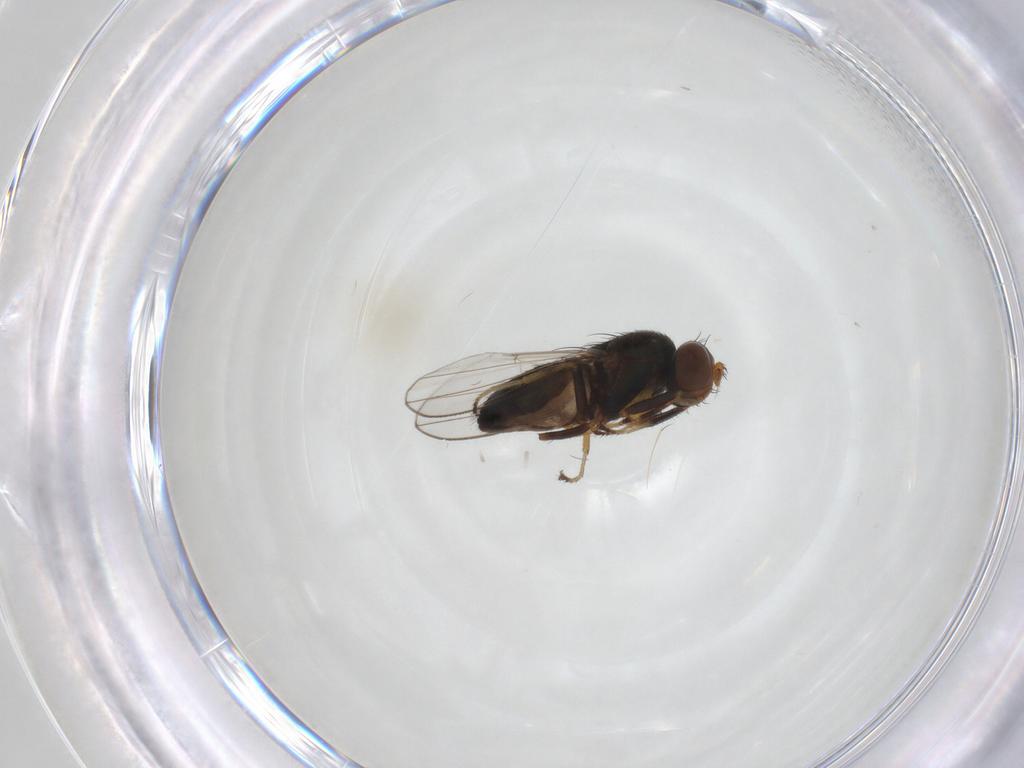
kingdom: Animalia
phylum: Arthropoda
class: Insecta
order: Diptera
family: Ephydridae
